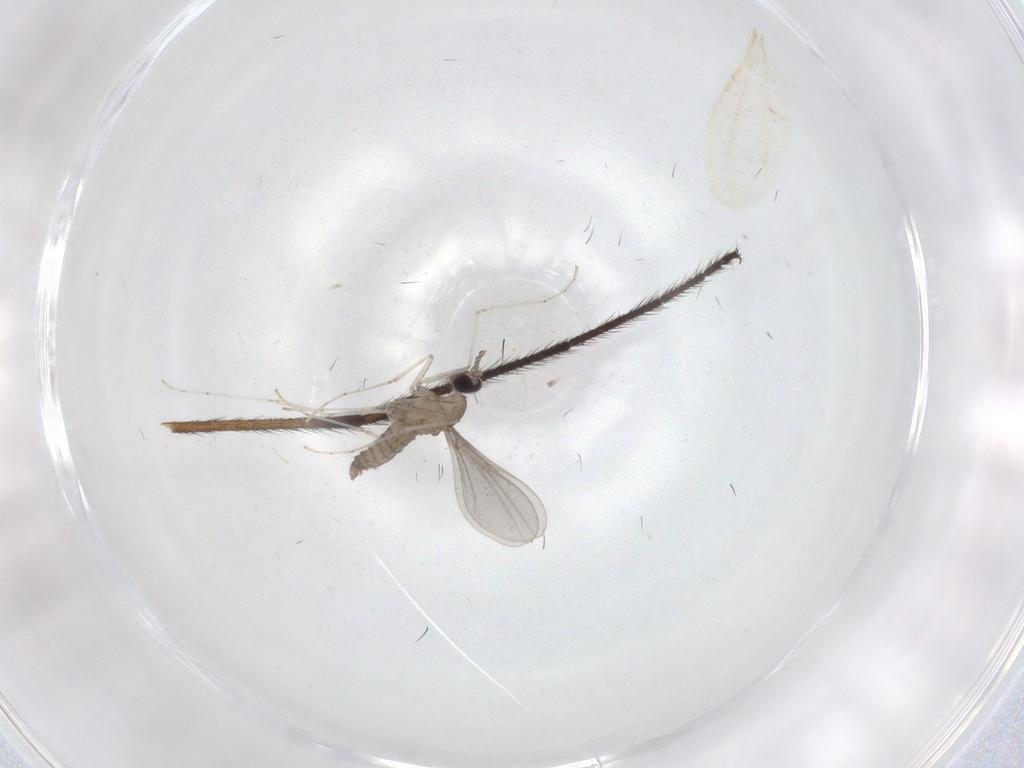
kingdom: Animalia
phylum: Arthropoda
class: Insecta
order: Diptera
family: Cecidomyiidae
